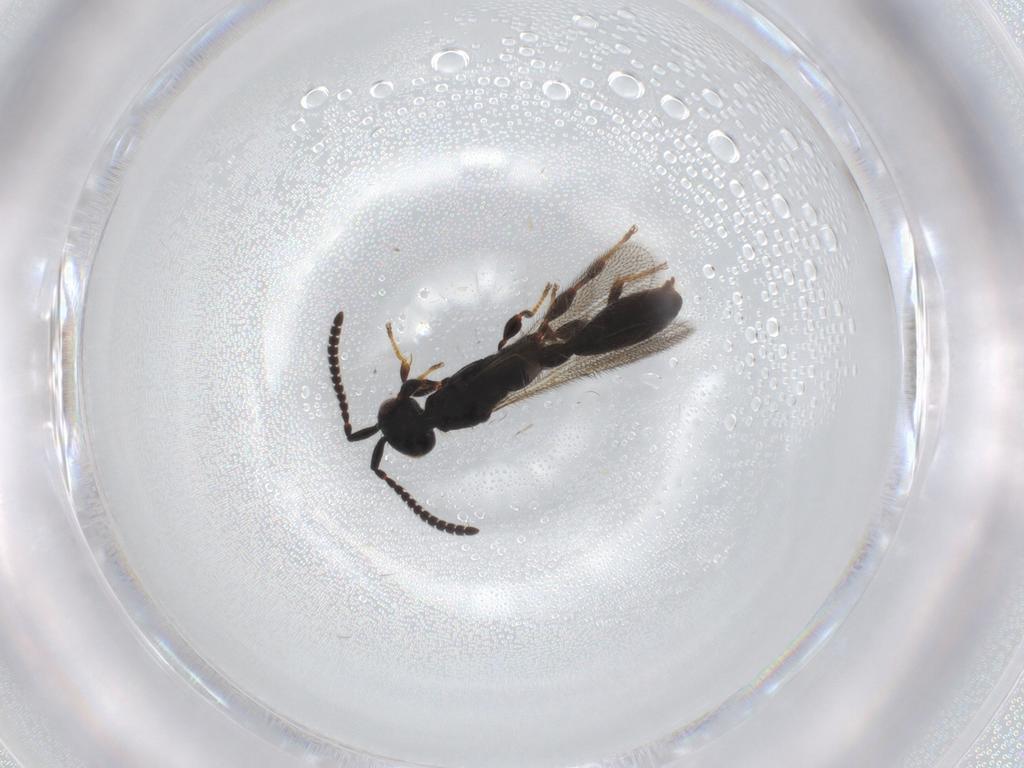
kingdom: Animalia
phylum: Arthropoda
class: Insecta
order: Hymenoptera
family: Diapriidae
